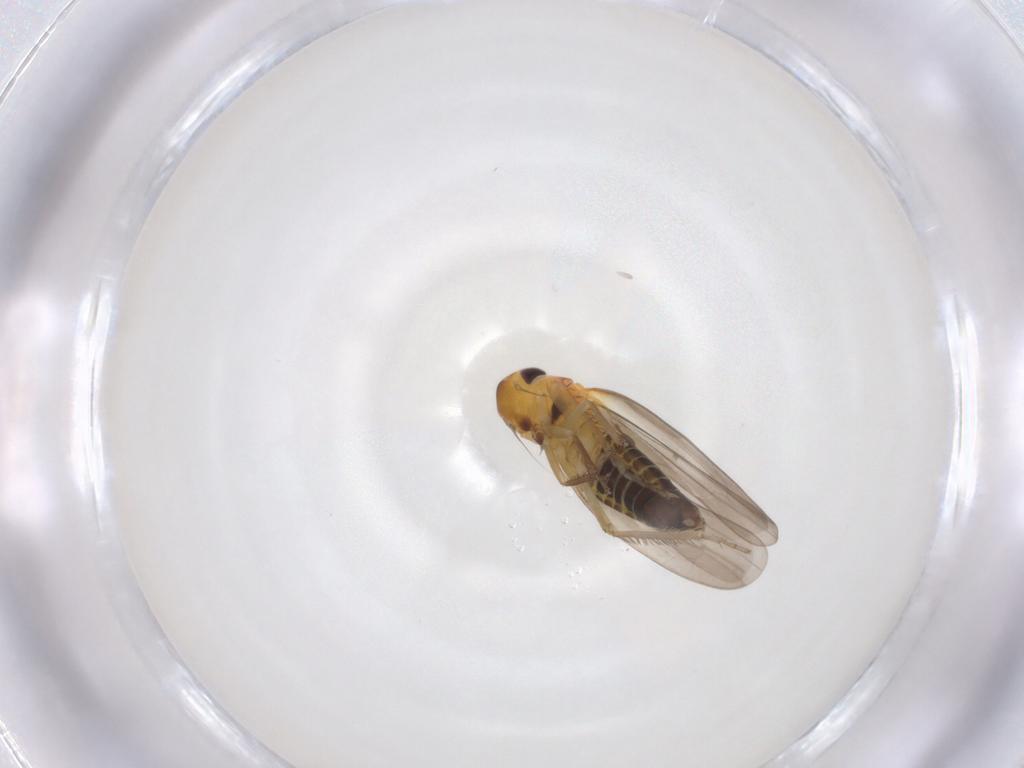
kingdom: Animalia
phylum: Arthropoda
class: Insecta
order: Hemiptera
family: Cicadellidae
